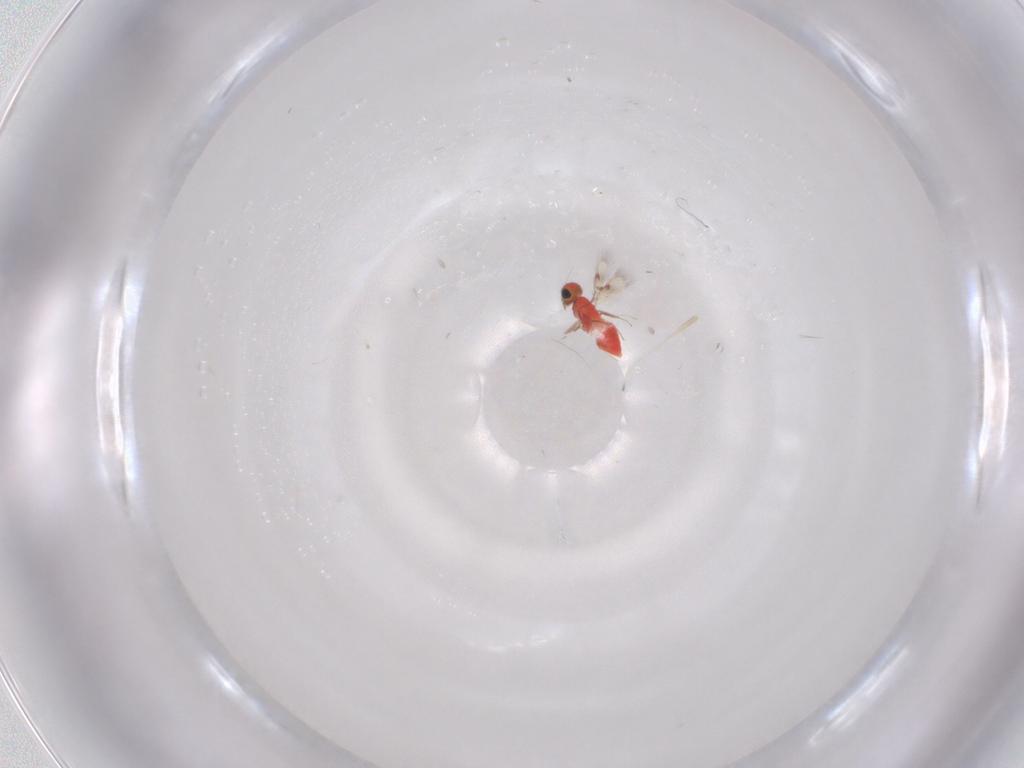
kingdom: Animalia
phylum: Arthropoda
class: Insecta
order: Hymenoptera
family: Trichogrammatidae
